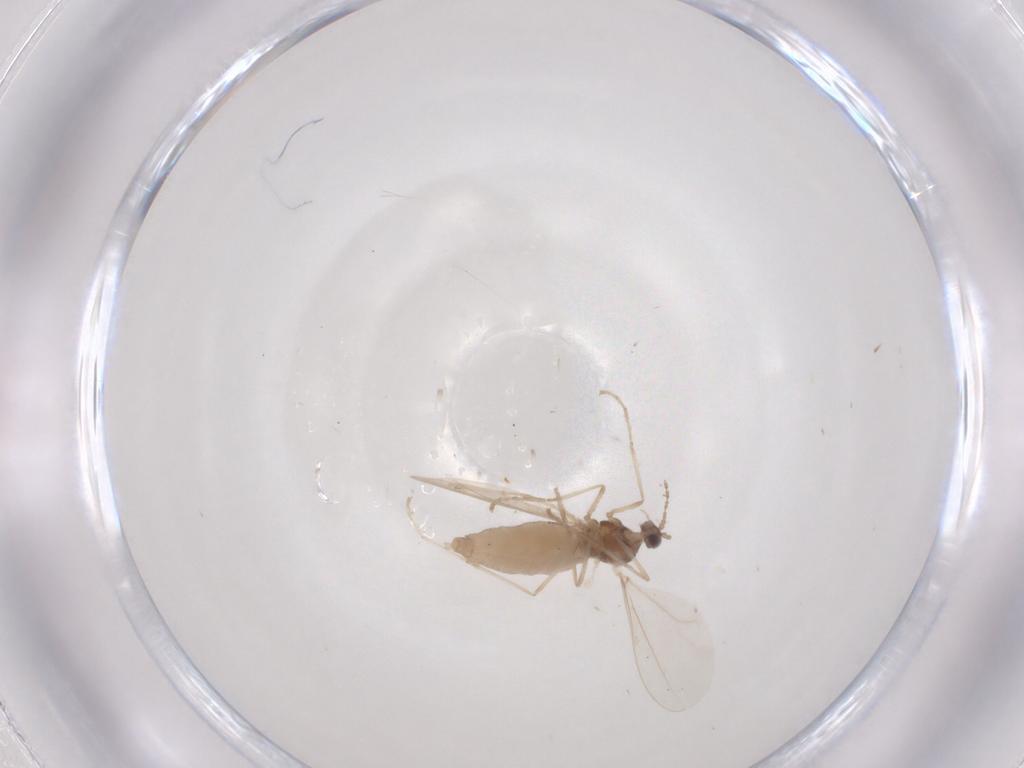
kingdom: Animalia
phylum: Arthropoda
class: Insecta
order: Diptera
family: Cecidomyiidae
